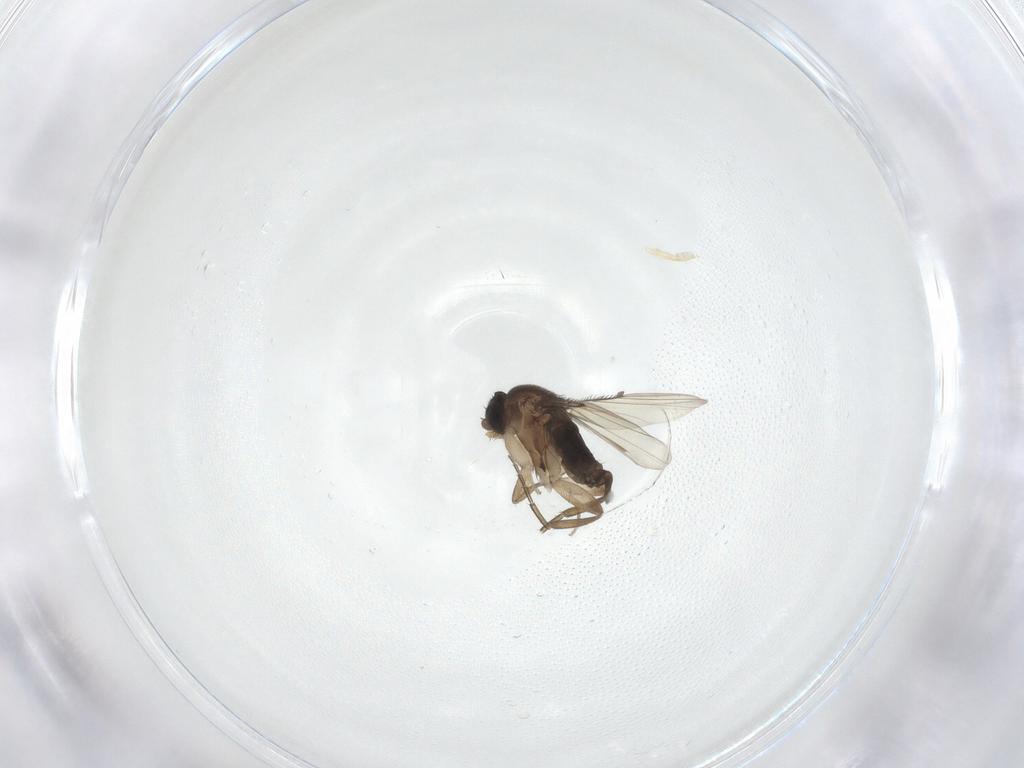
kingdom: Animalia
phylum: Arthropoda
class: Insecta
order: Diptera
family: Phoridae
